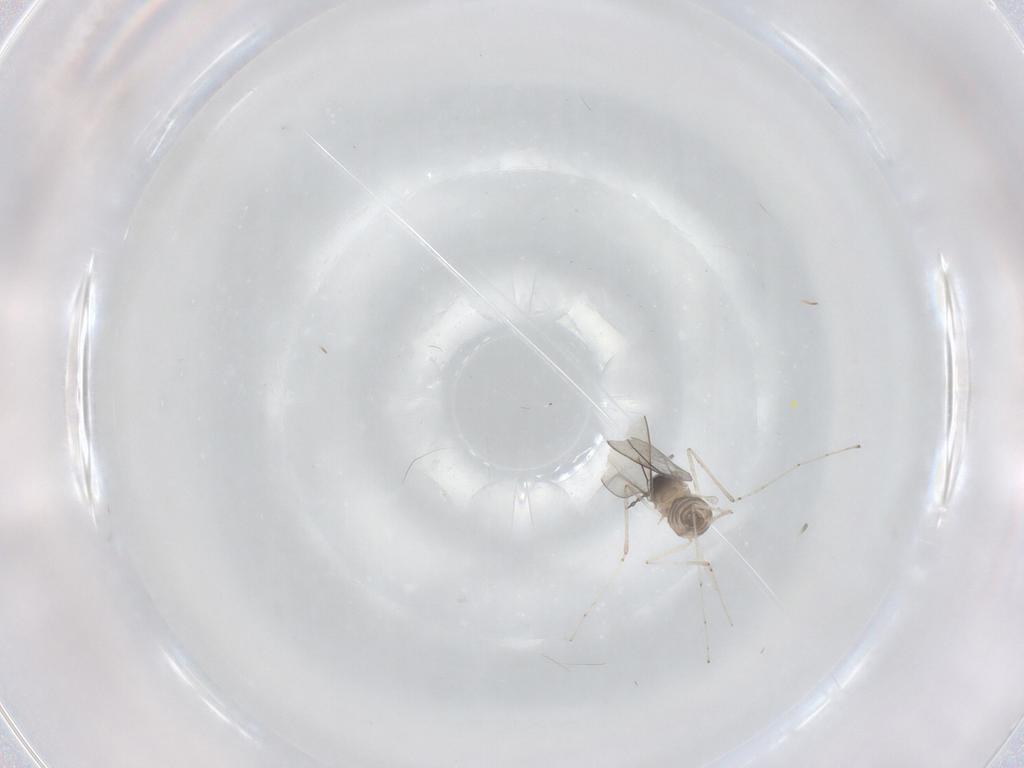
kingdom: Animalia
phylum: Arthropoda
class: Insecta
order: Diptera
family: Cecidomyiidae
